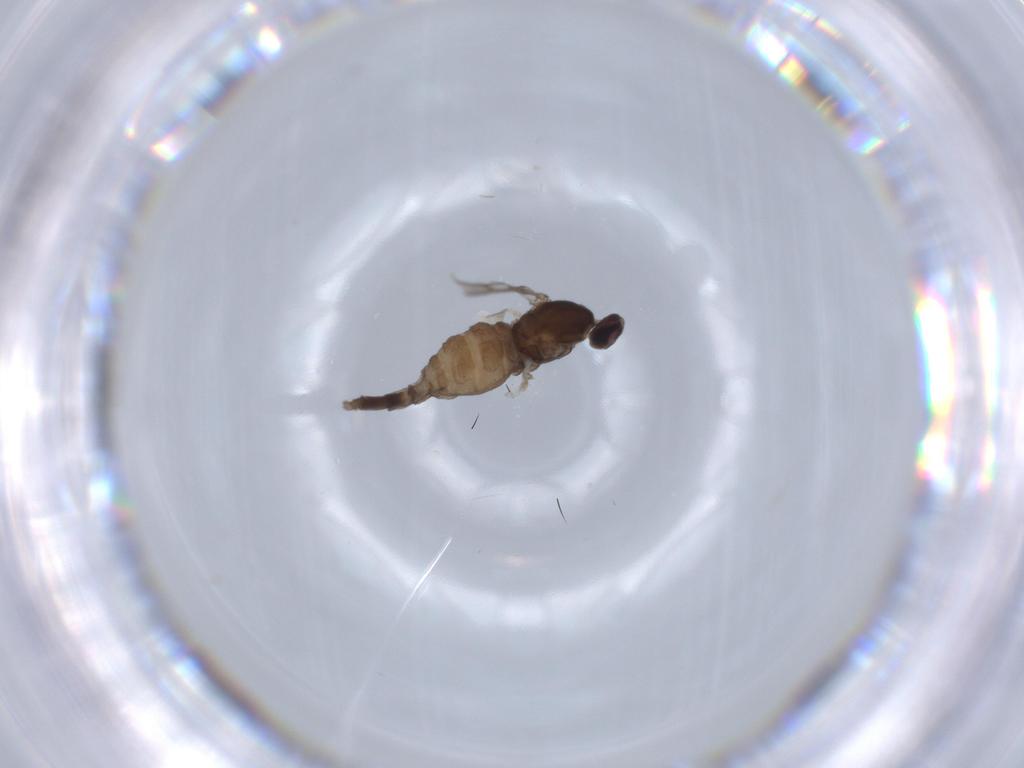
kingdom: Animalia
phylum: Arthropoda
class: Insecta
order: Diptera
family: Cecidomyiidae
